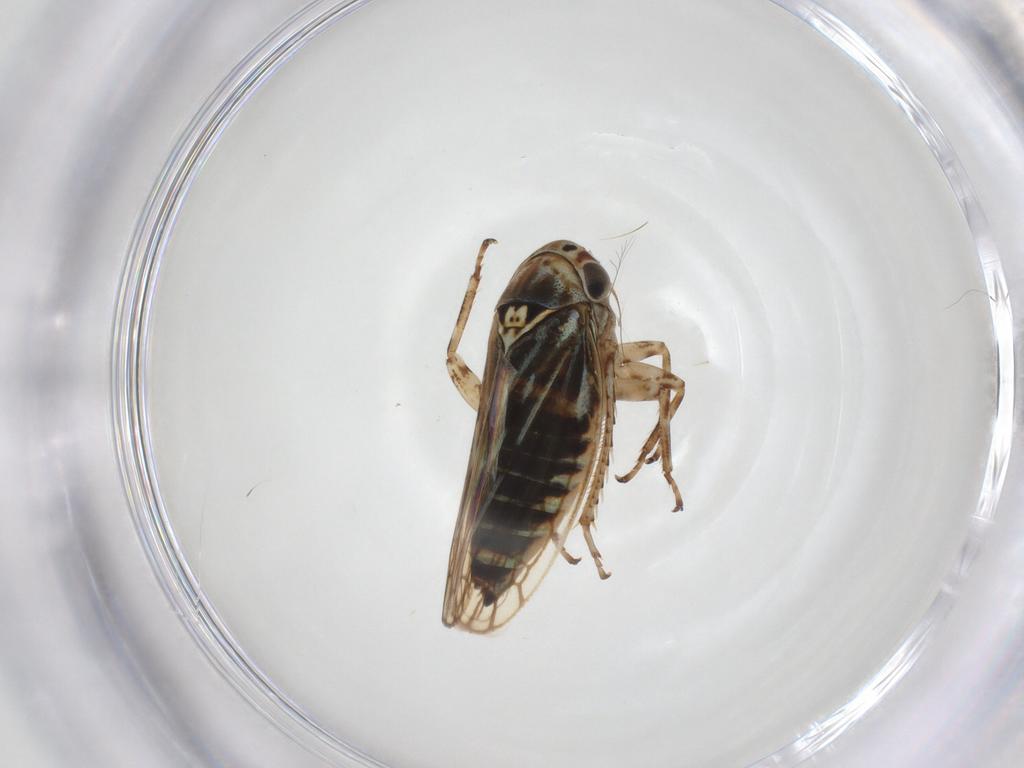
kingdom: Animalia
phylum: Arthropoda
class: Insecta
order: Hemiptera
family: Cicadellidae
